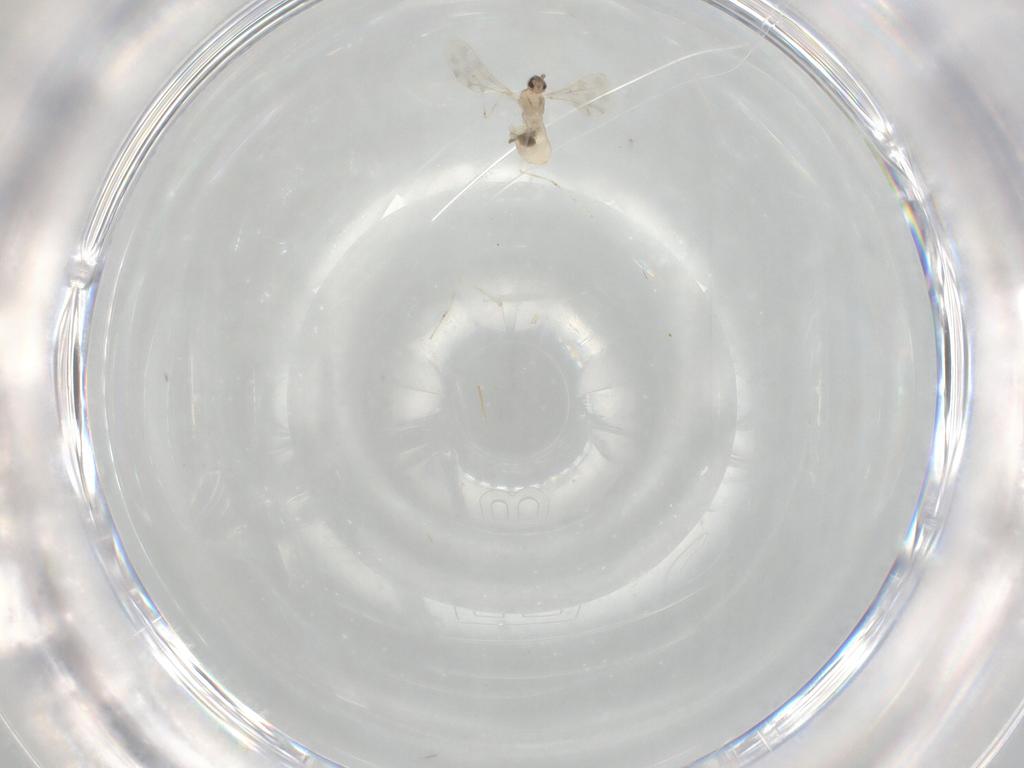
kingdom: Animalia
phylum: Arthropoda
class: Insecta
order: Diptera
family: Cecidomyiidae
